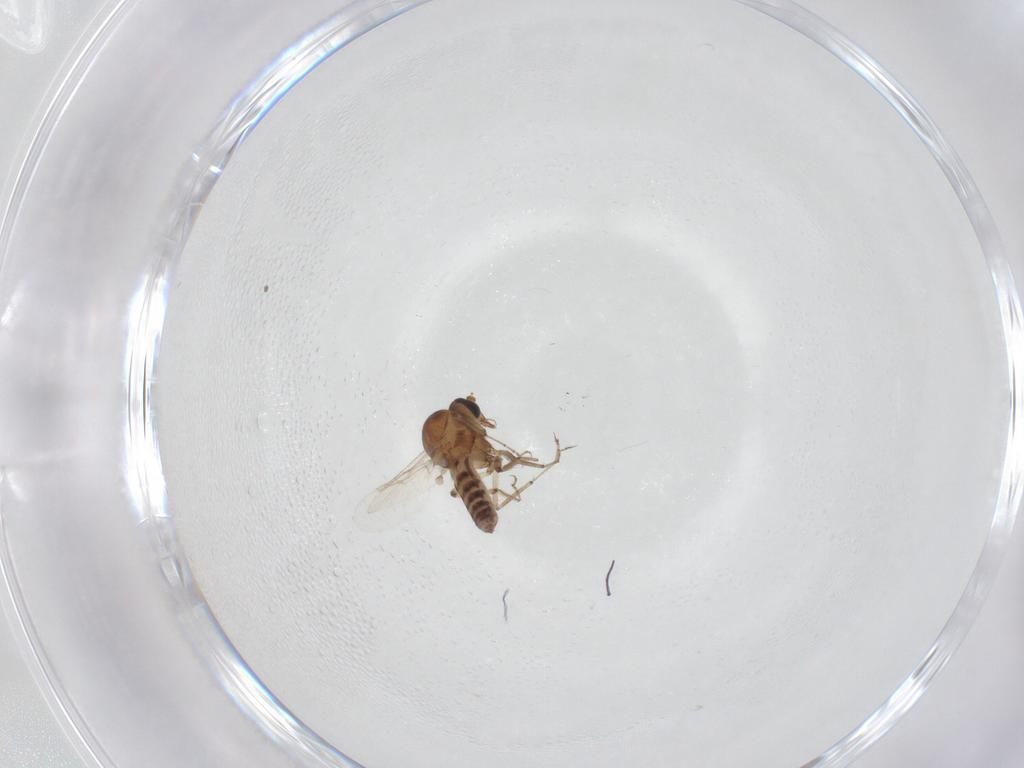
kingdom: Animalia
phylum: Arthropoda
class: Insecta
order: Diptera
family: Ceratopogonidae
